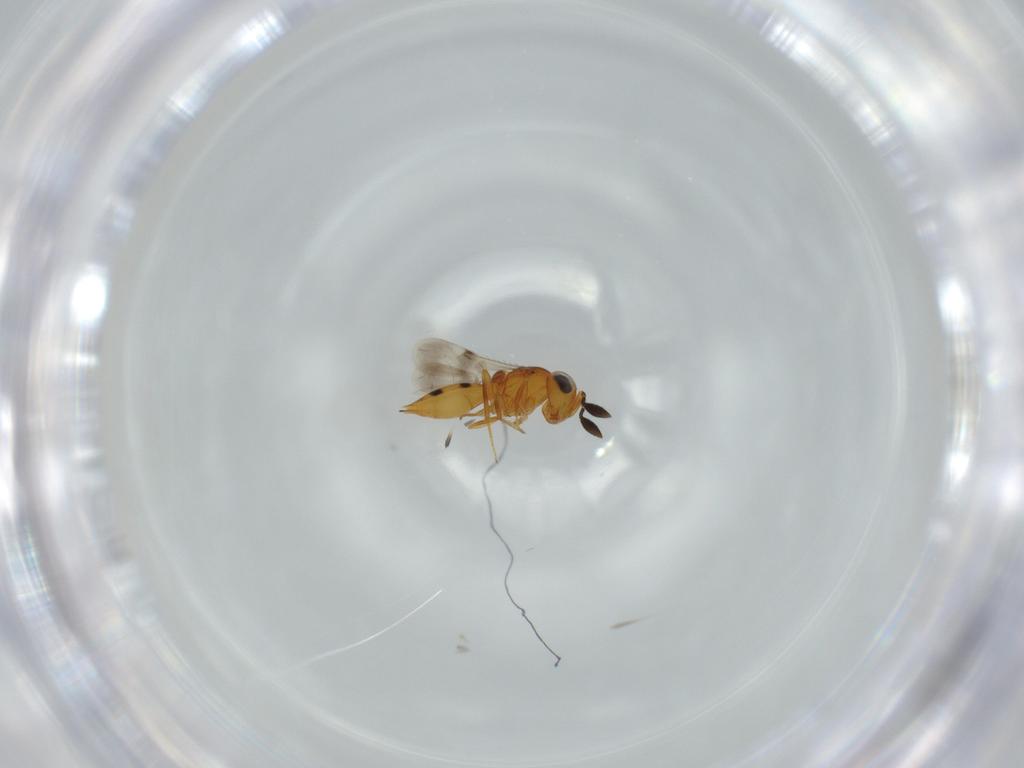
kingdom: Animalia
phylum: Arthropoda
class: Insecta
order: Hymenoptera
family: Scelionidae
